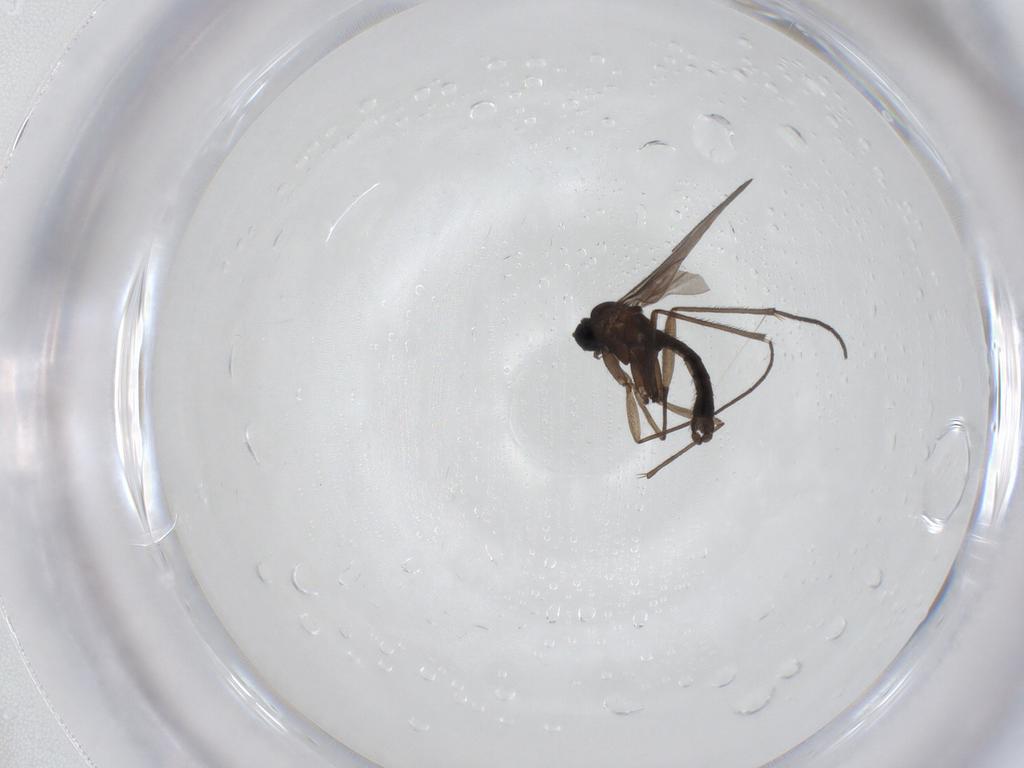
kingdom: Animalia
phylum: Arthropoda
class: Insecta
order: Diptera
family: Sciaridae
